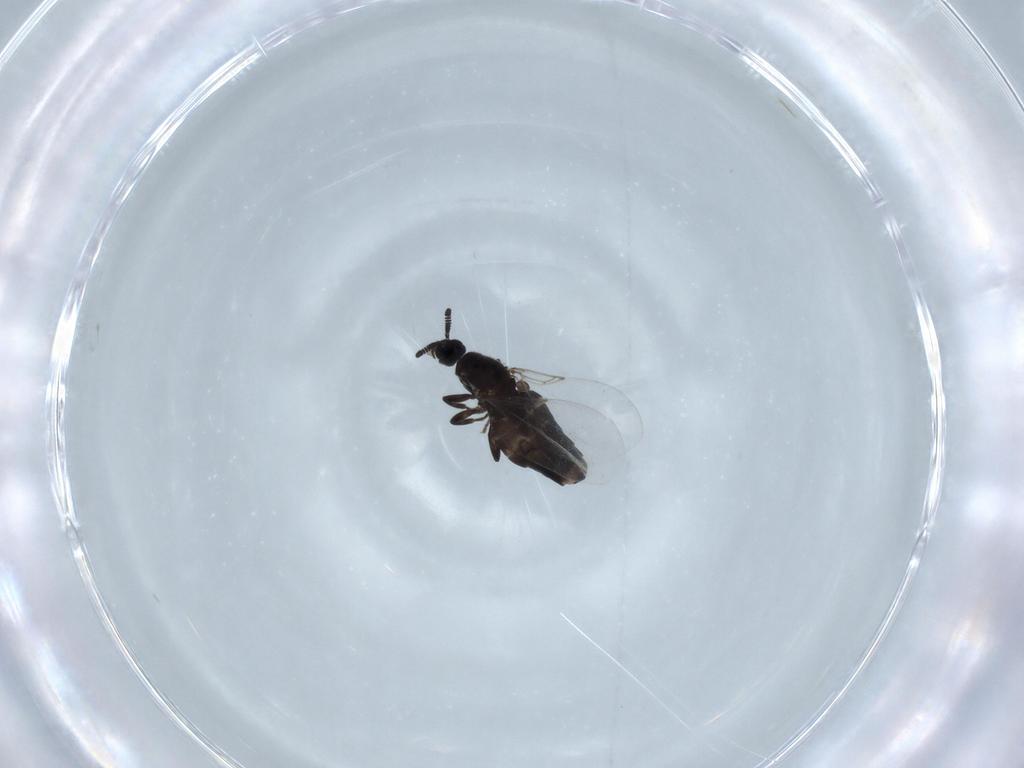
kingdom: Animalia
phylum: Arthropoda
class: Insecta
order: Diptera
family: Scatopsidae
